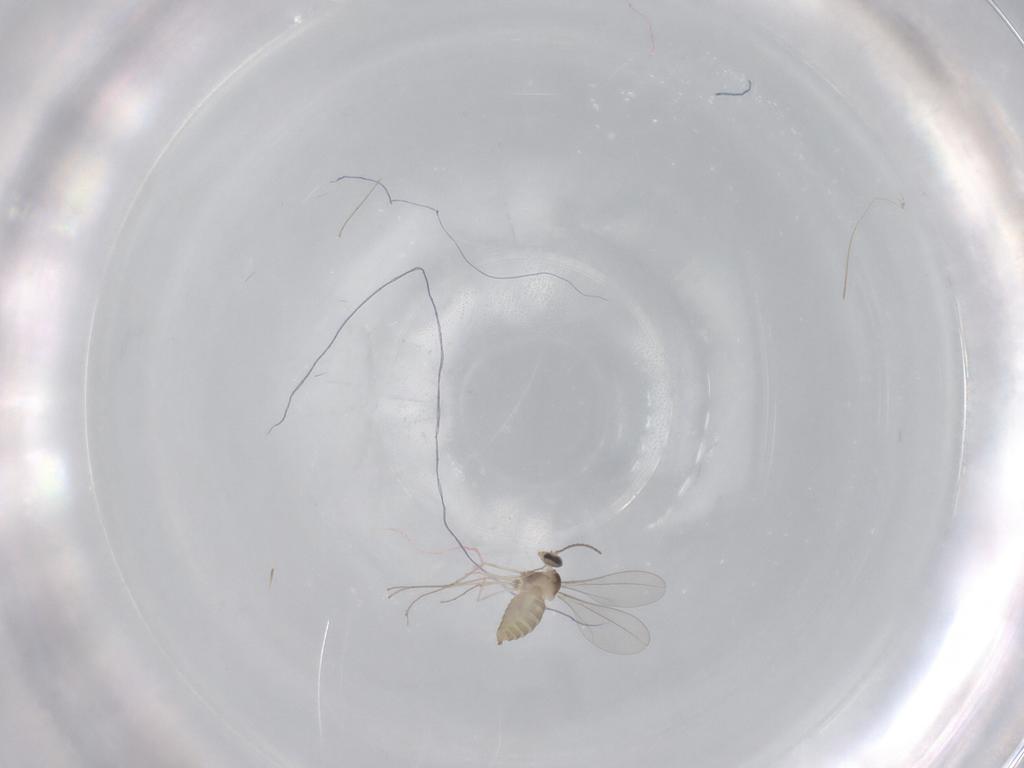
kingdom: Animalia
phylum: Arthropoda
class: Insecta
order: Diptera
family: Cecidomyiidae
